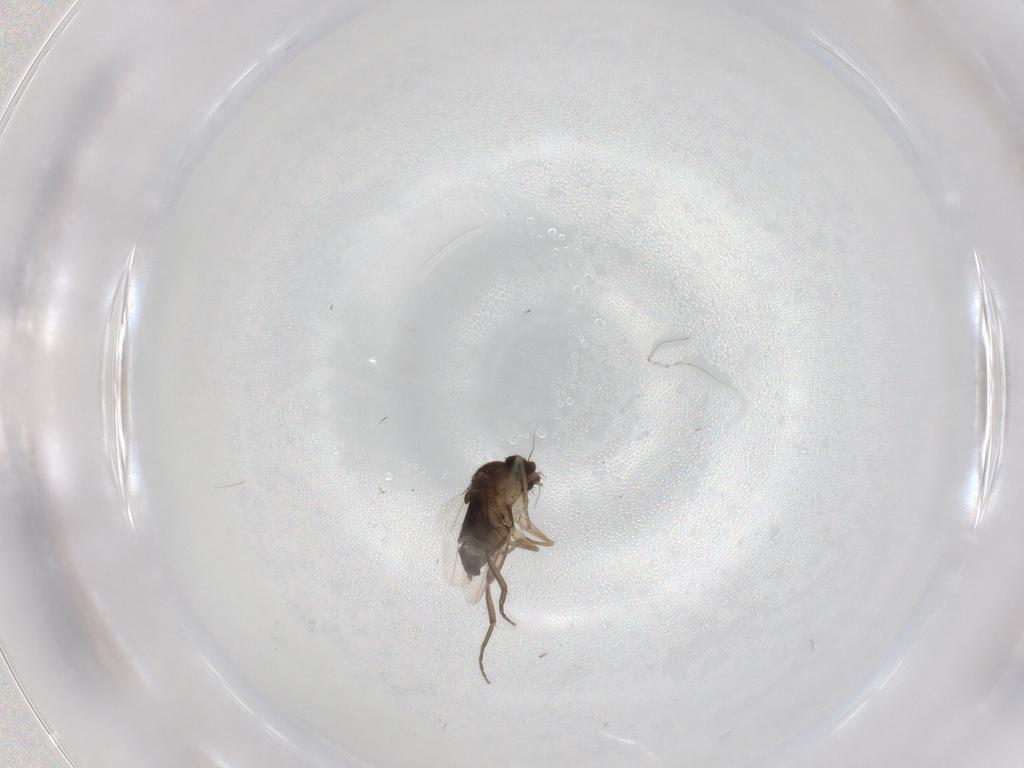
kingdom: Animalia
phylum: Arthropoda
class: Insecta
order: Diptera
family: Phoridae
